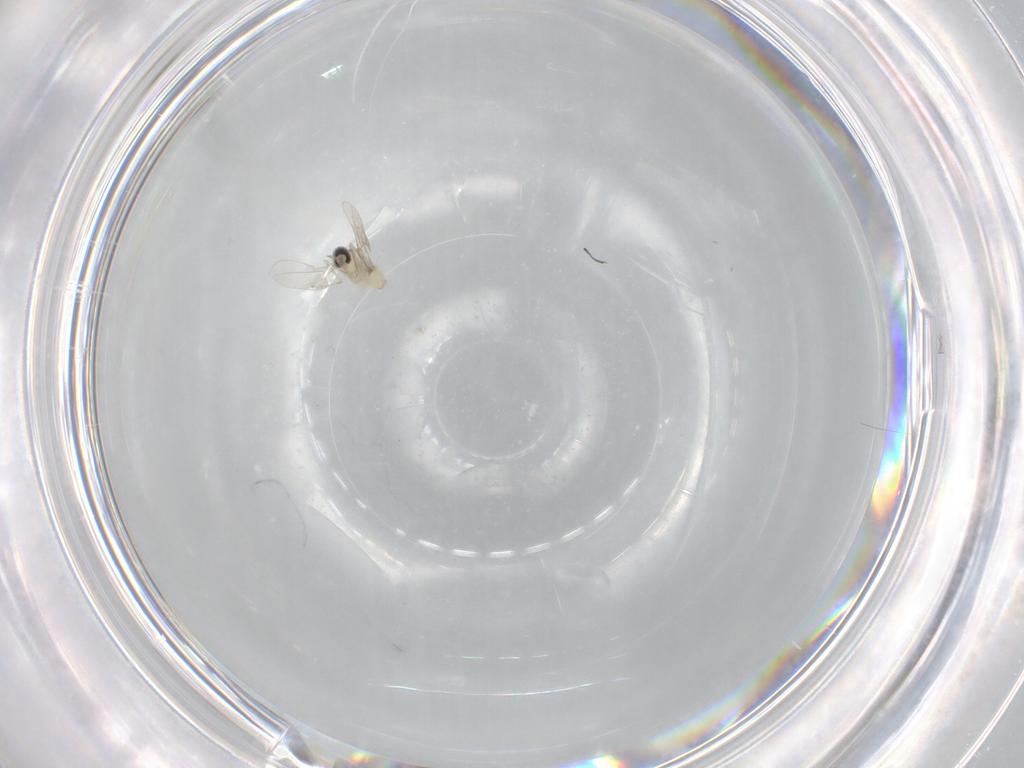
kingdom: Animalia
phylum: Arthropoda
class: Insecta
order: Diptera
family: Cecidomyiidae
